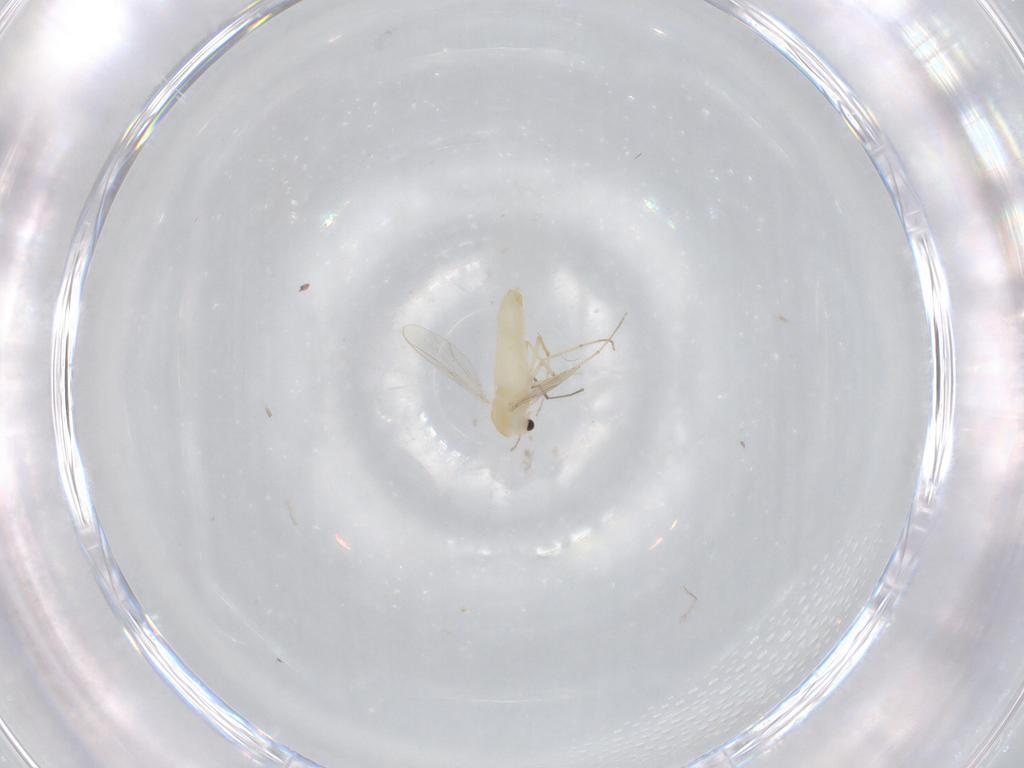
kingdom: Animalia
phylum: Arthropoda
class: Insecta
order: Diptera
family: Chironomidae
